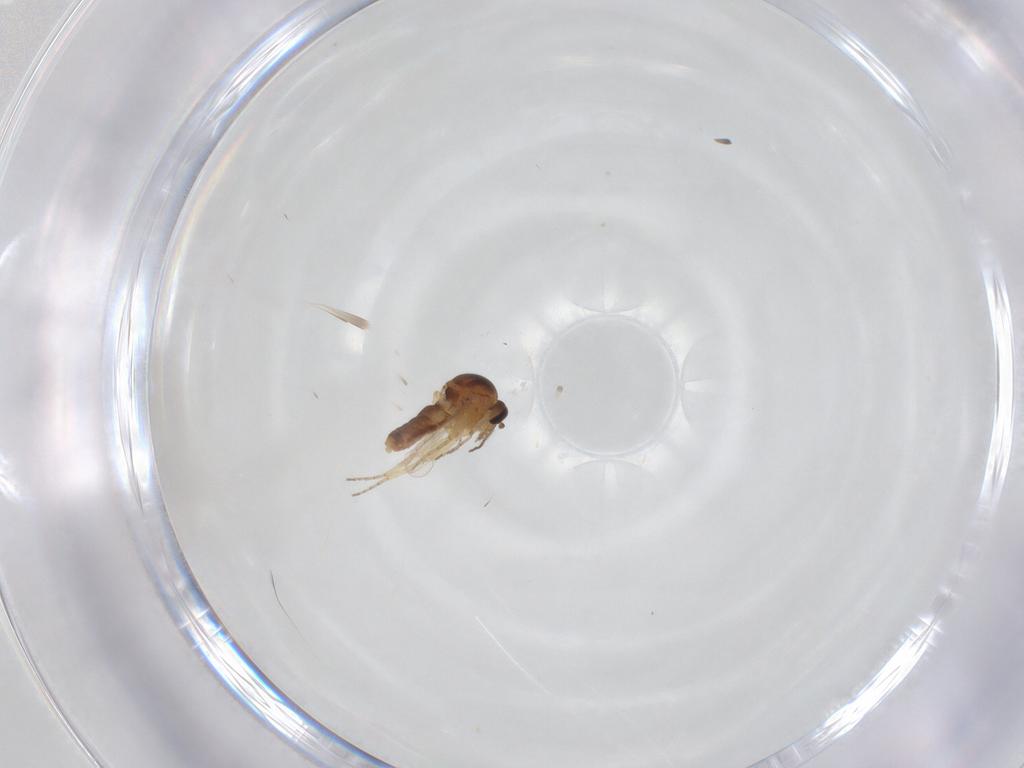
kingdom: Animalia
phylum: Arthropoda
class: Insecta
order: Diptera
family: Ceratopogonidae
